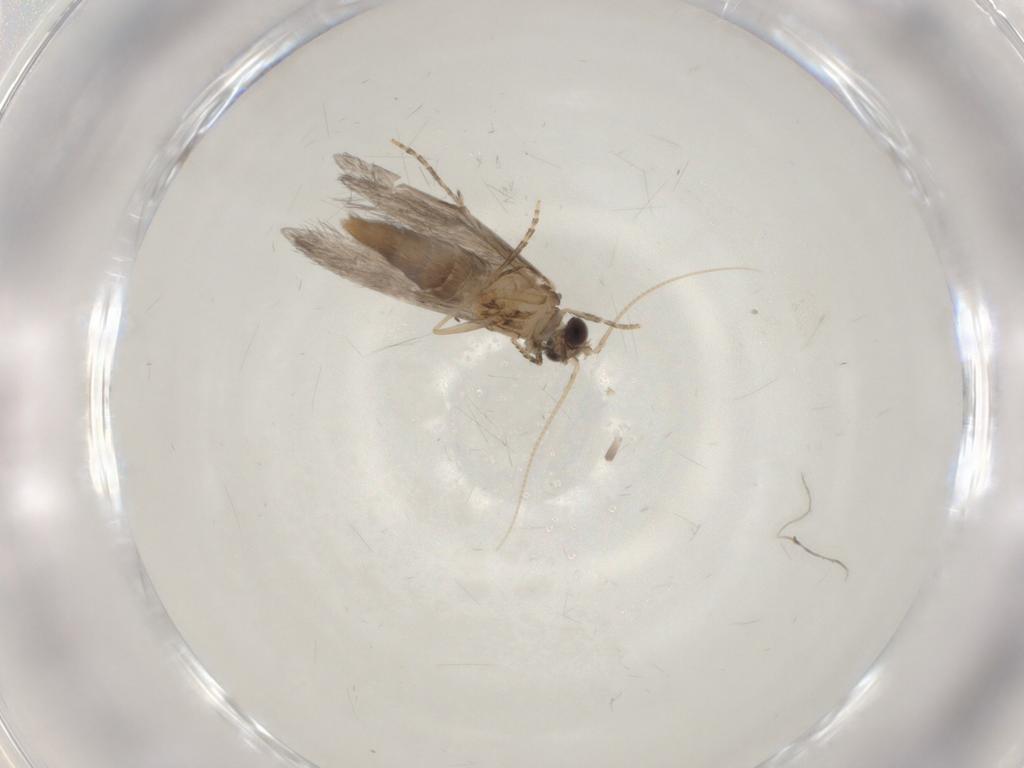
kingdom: Animalia
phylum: Arthropoda
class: Insecta
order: Trichoptera
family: Hydroptilidae
